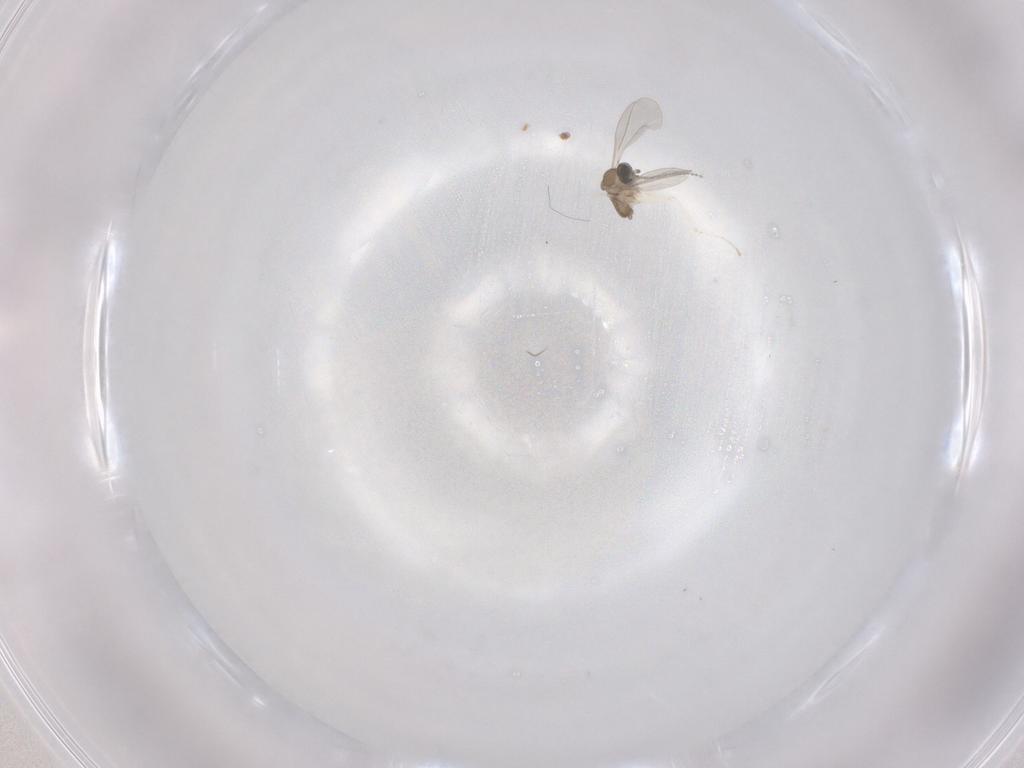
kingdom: Animalia
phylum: Arthropoda
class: Insecta
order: Diptera
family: Cecidomyiidae
